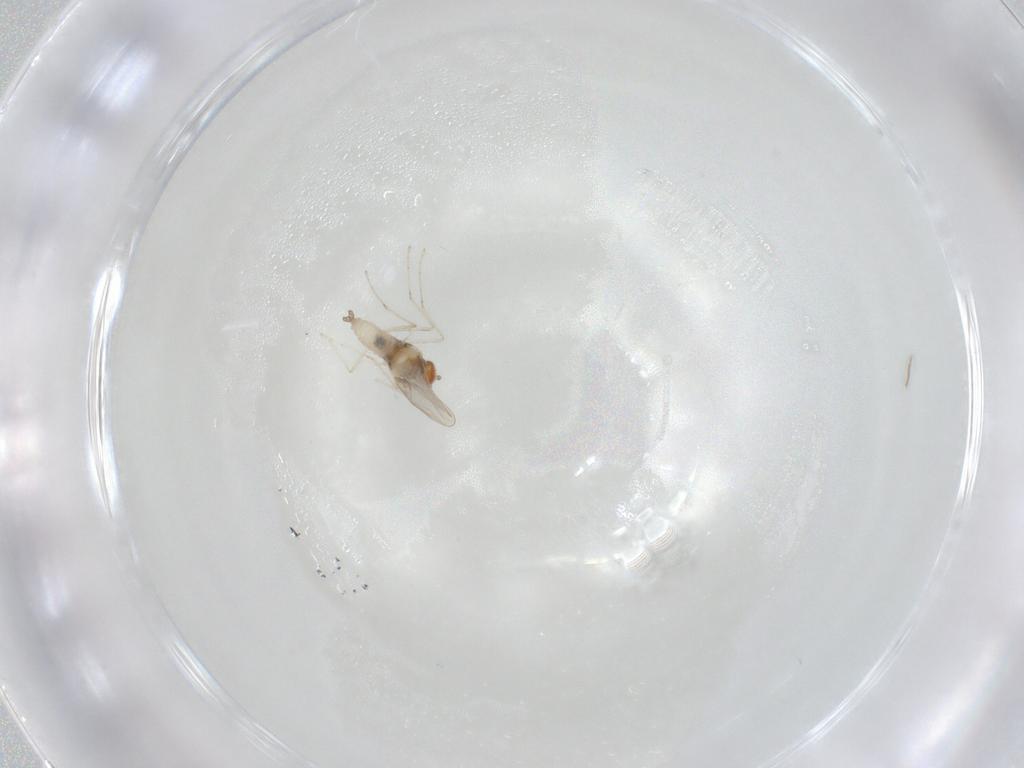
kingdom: Animalia
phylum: Arthropoda
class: Insecta
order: Diptera
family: Cecidomyiidae
